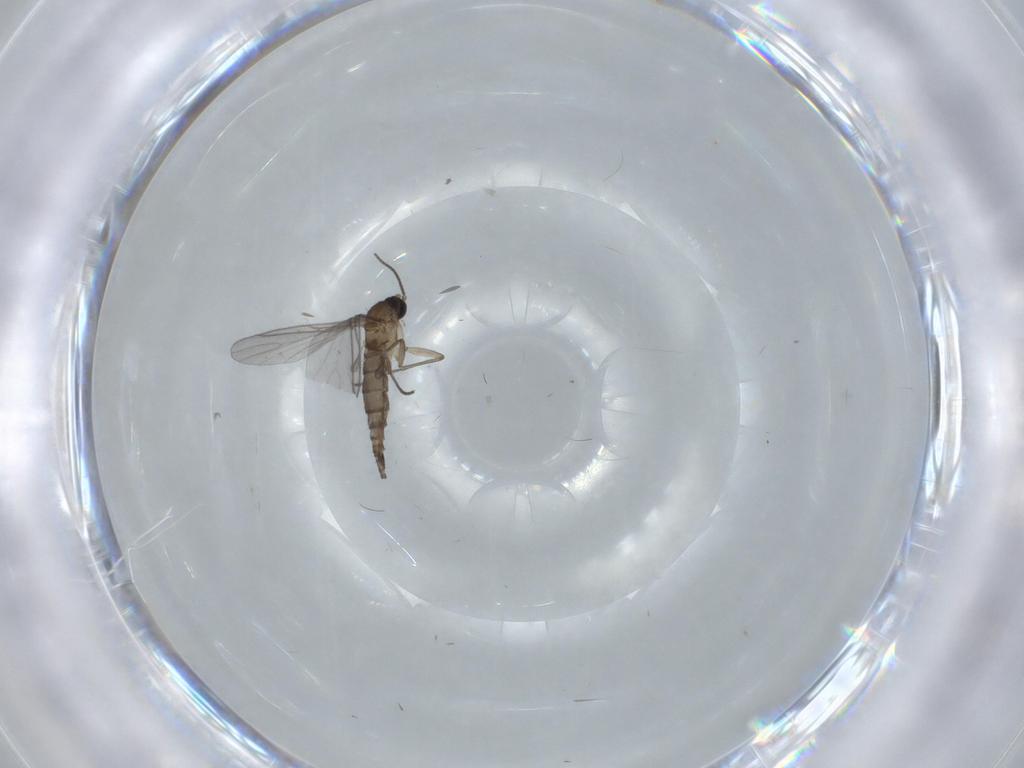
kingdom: Animalia
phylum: Arthropoda
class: Insecta
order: Diptera
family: Sciaridae
